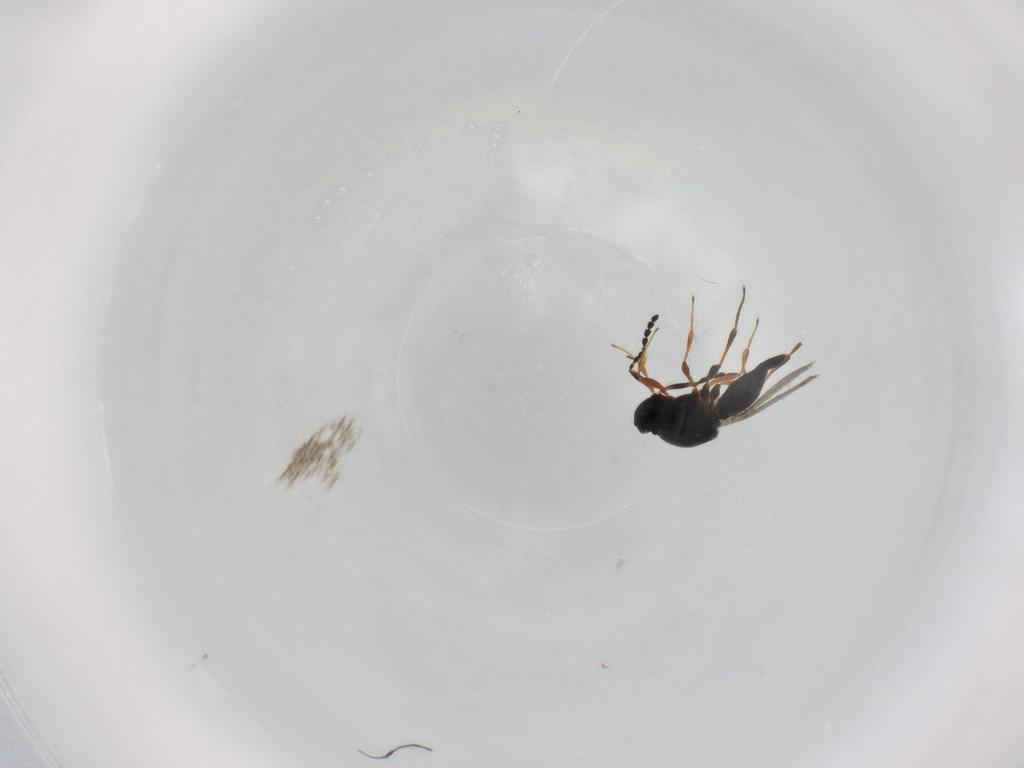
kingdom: Animalia
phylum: Arthropoda
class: Insecta
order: Hymenoptera
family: Platygastridae
